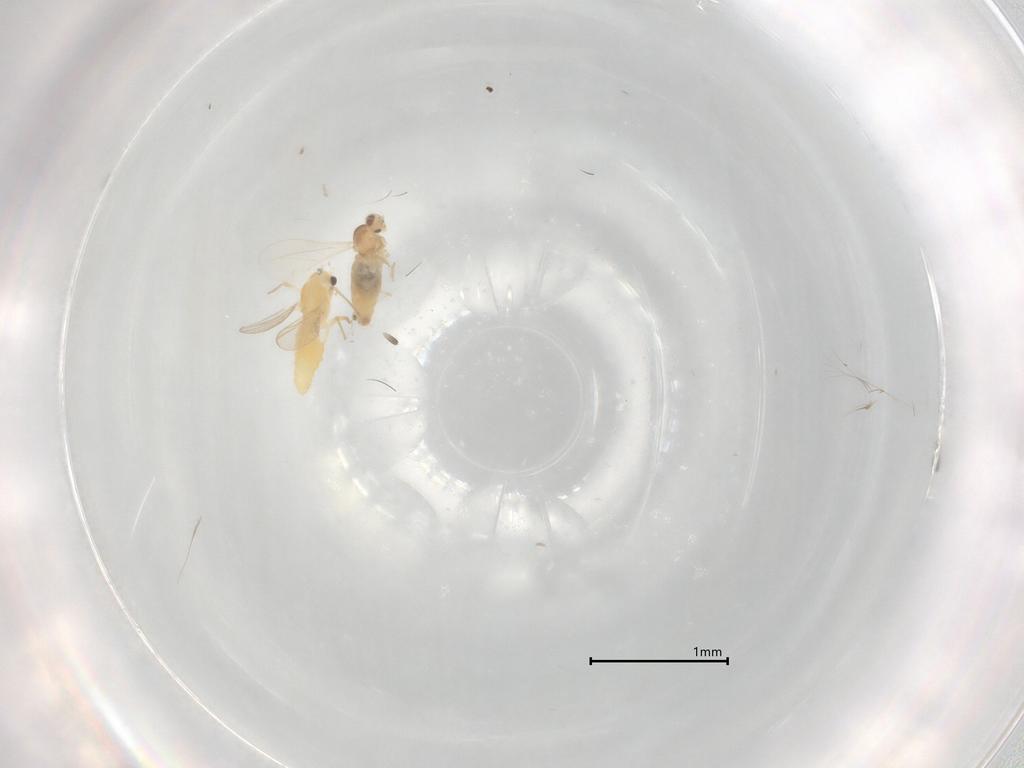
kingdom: Animalia
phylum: Arthropoda
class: Insecta
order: Diptera
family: Chironomidae
